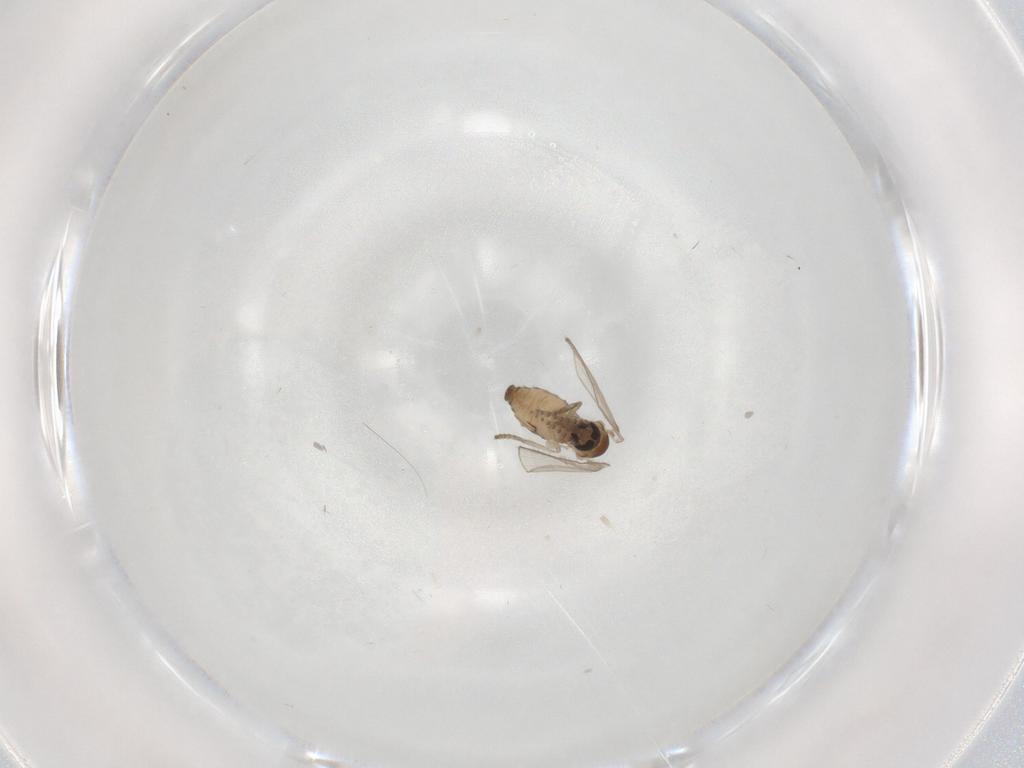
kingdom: Animalia
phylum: Arthropoda
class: Insecta
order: Diptera
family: Psychodidae
